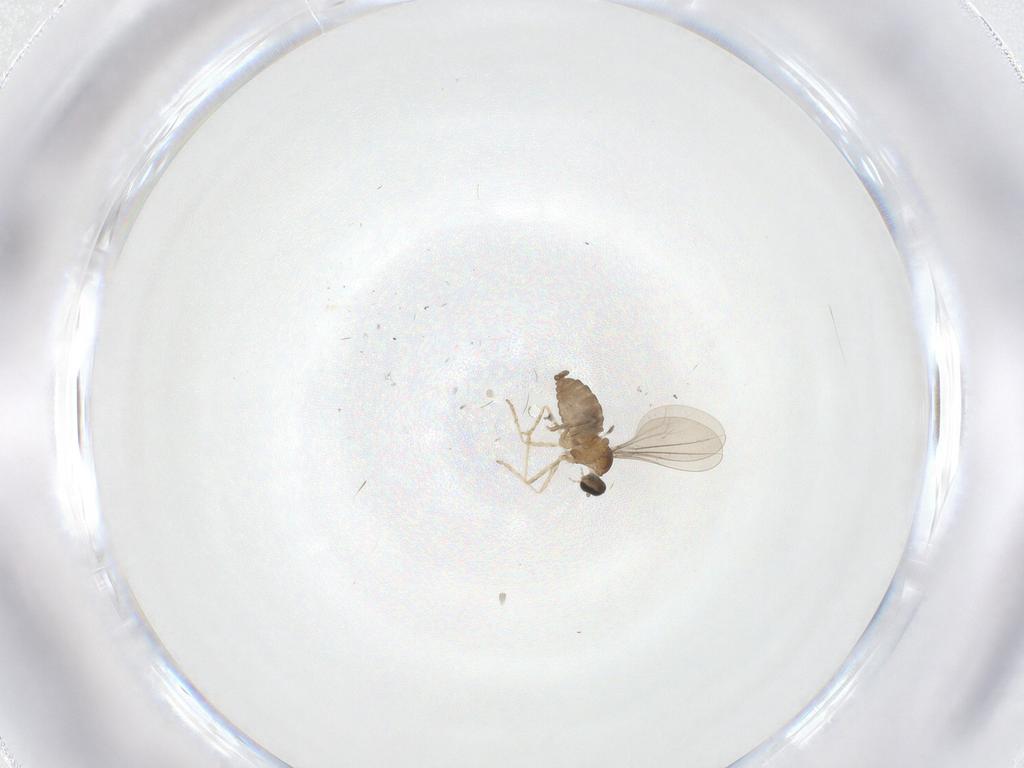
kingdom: Animalia
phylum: Arthropoda
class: Insecta
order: Diptera
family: Cecidomyiidae
